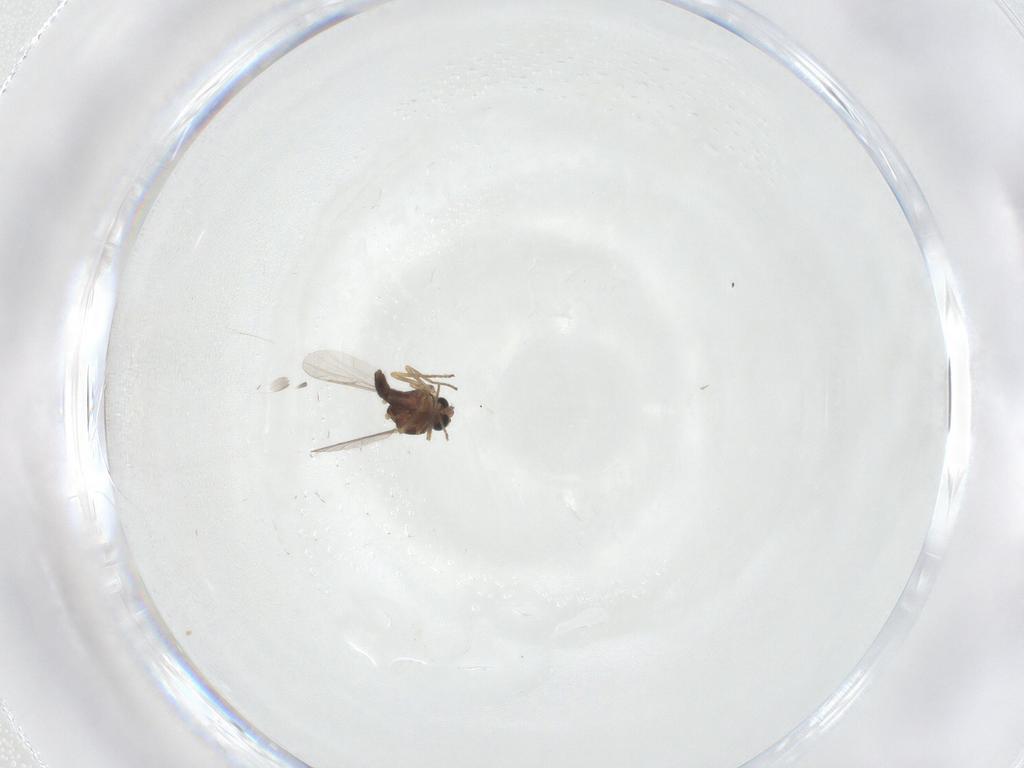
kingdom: Animalia
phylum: Arthropoda
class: Insecta
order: Diptera
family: Ceratopogonidae
